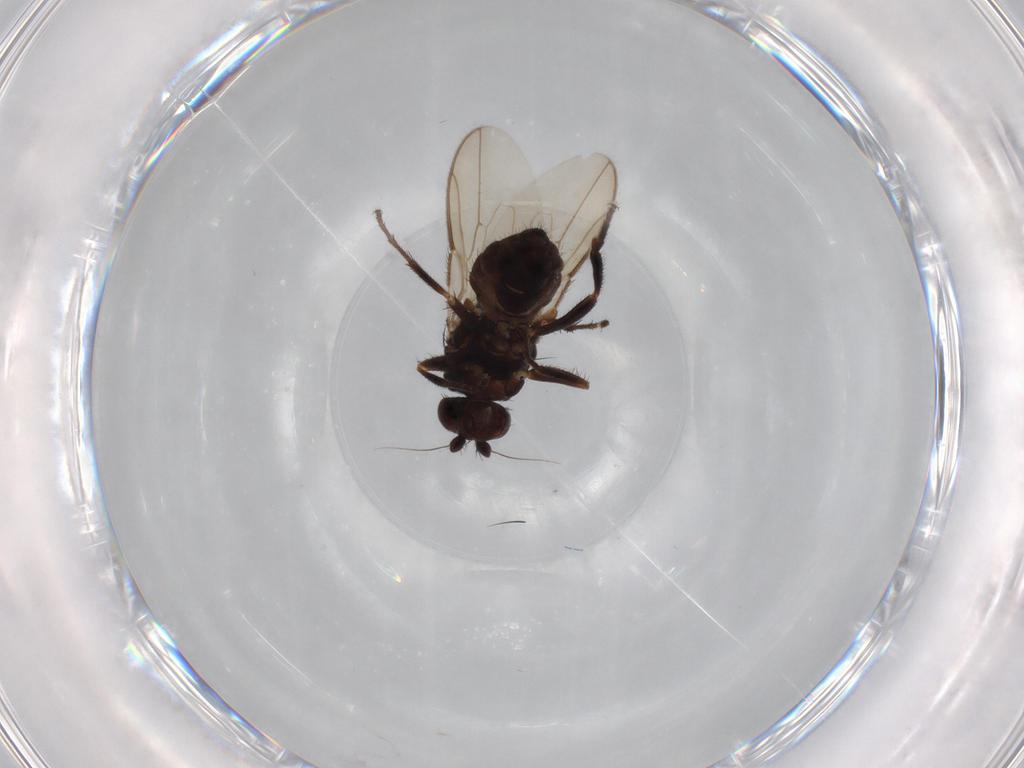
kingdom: Animalia
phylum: Arthropoda
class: Insecta
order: Diptera
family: Sphaeroceridae
